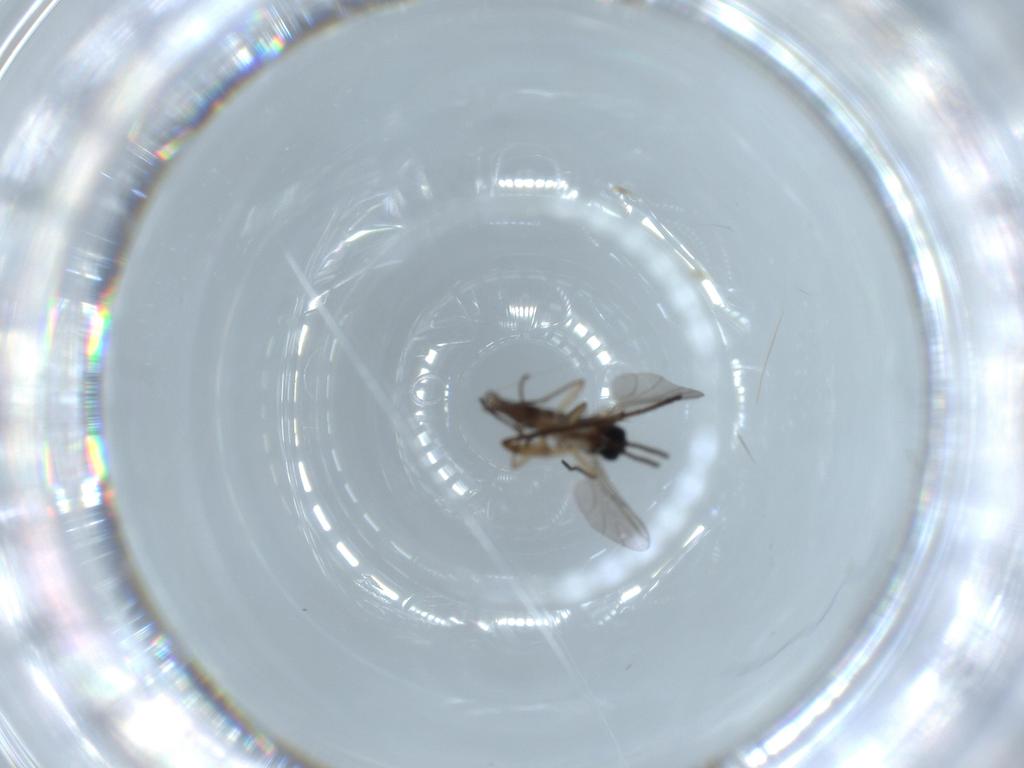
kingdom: Animalia
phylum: Arthropoda
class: Insecta
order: Diptera
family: Sciaridae
